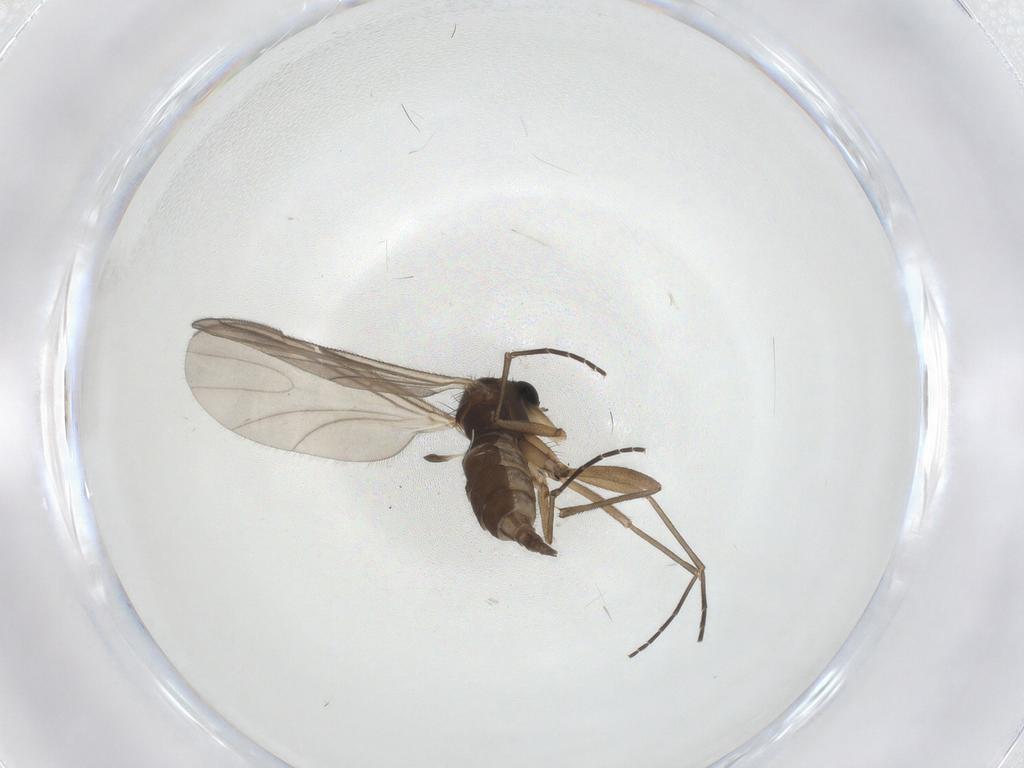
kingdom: Animalia
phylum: Arthropoda
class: Insecta
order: Diptera
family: Sciaridae
